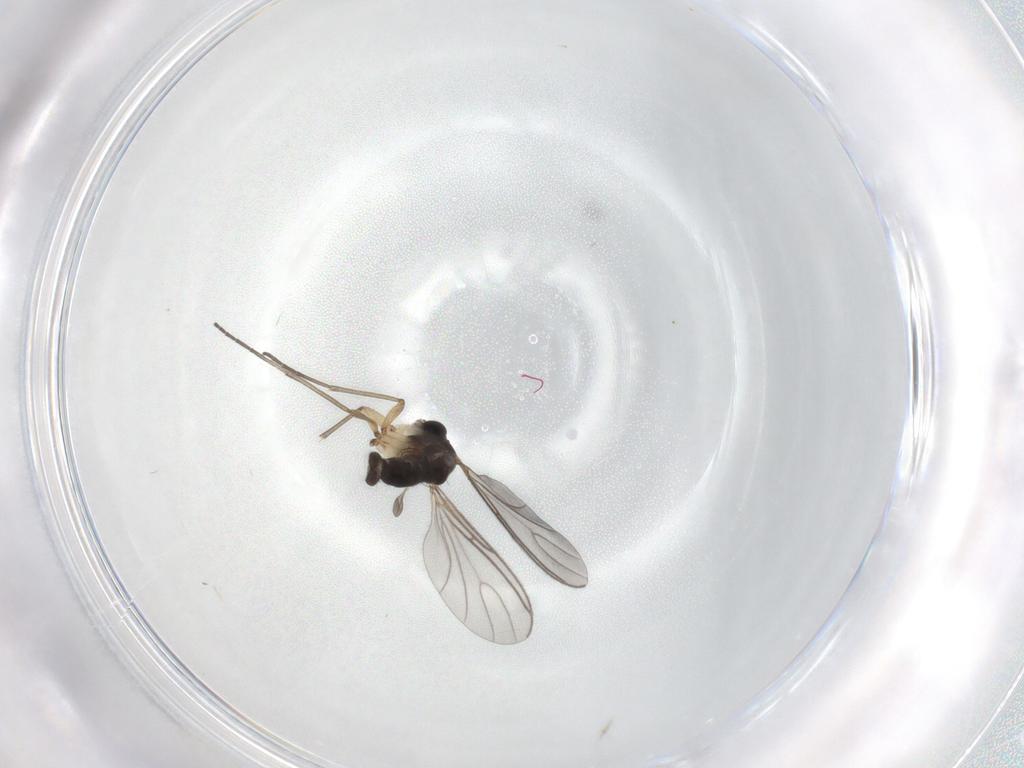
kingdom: Animalia
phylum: Arthropoda
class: Insecta
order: Diptera
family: Sciaridae
